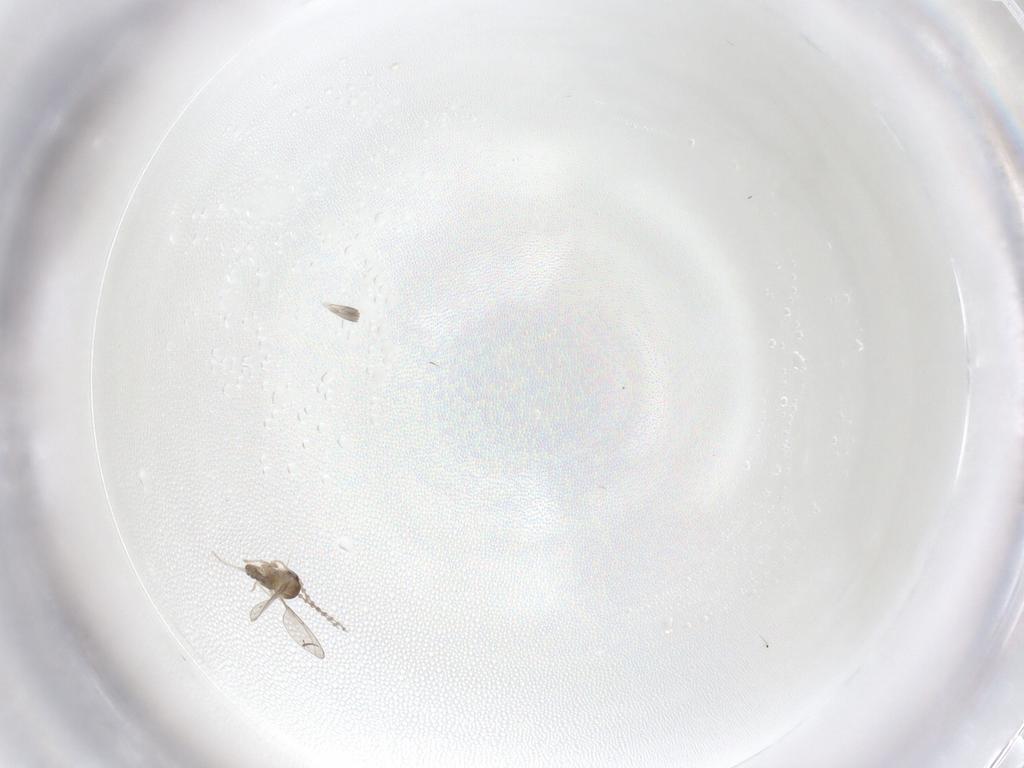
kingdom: Animalia
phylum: Arthropoda
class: Insecta
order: Diptera
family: Cecidomyiidae
